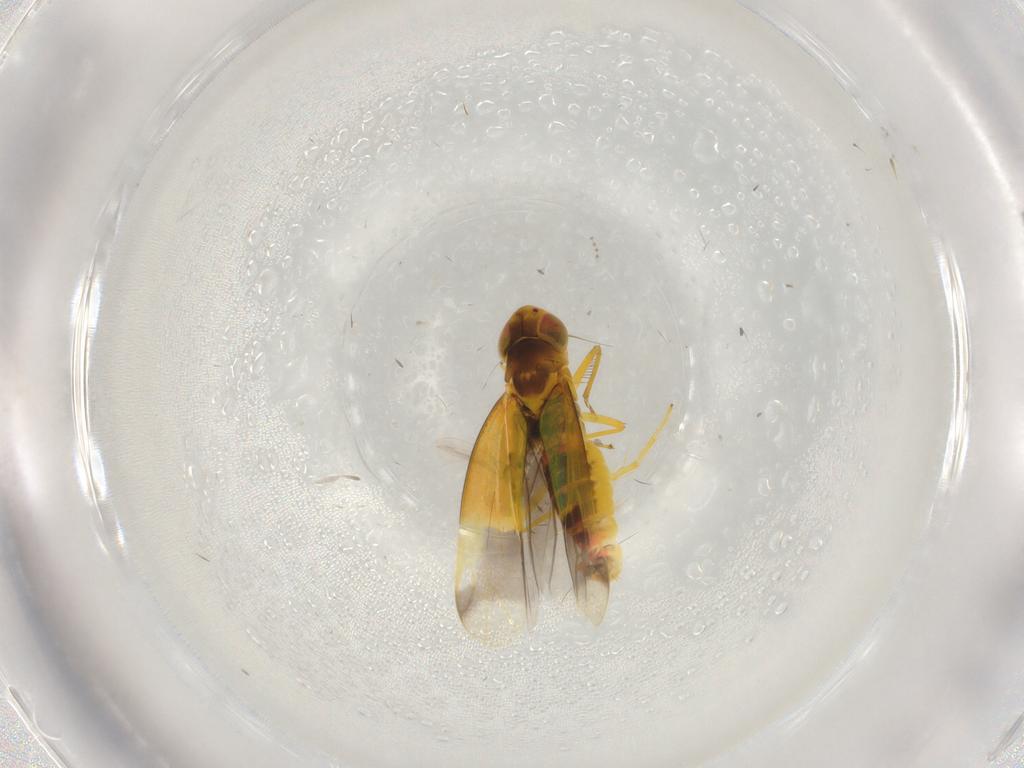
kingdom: Animalia
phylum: Arthropoda
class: Insecta
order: Hemiptera
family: Cicadellidae
